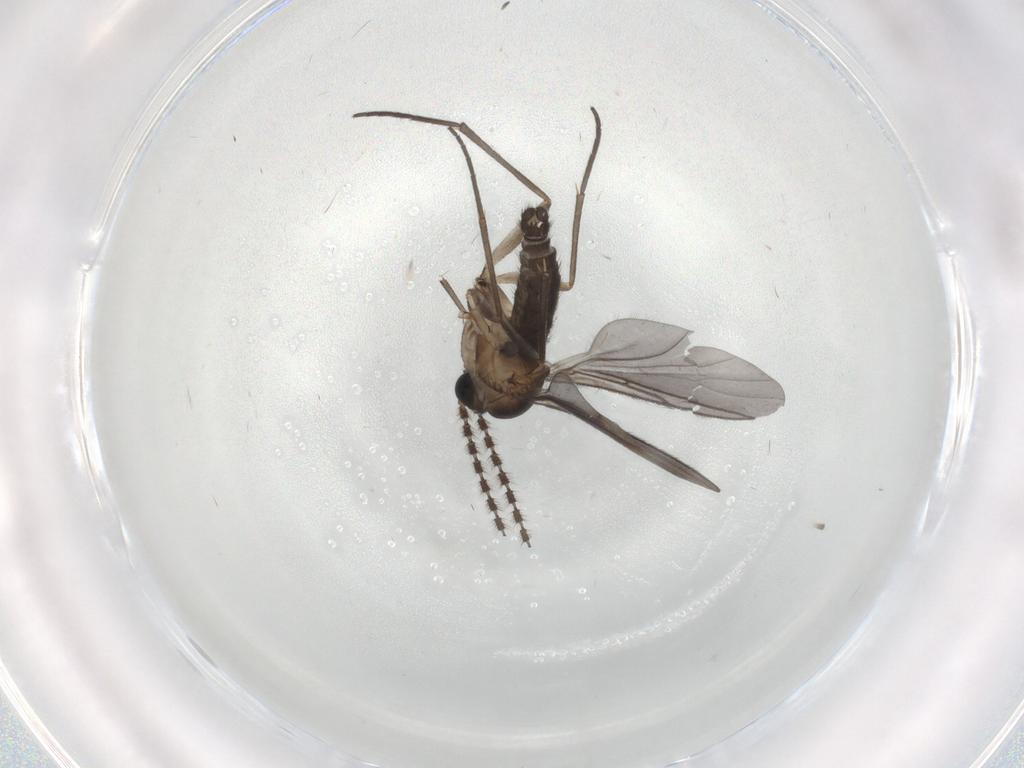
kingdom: Animalia
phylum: Arthropoda
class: Insecta
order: Diptera
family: Sciaridae
